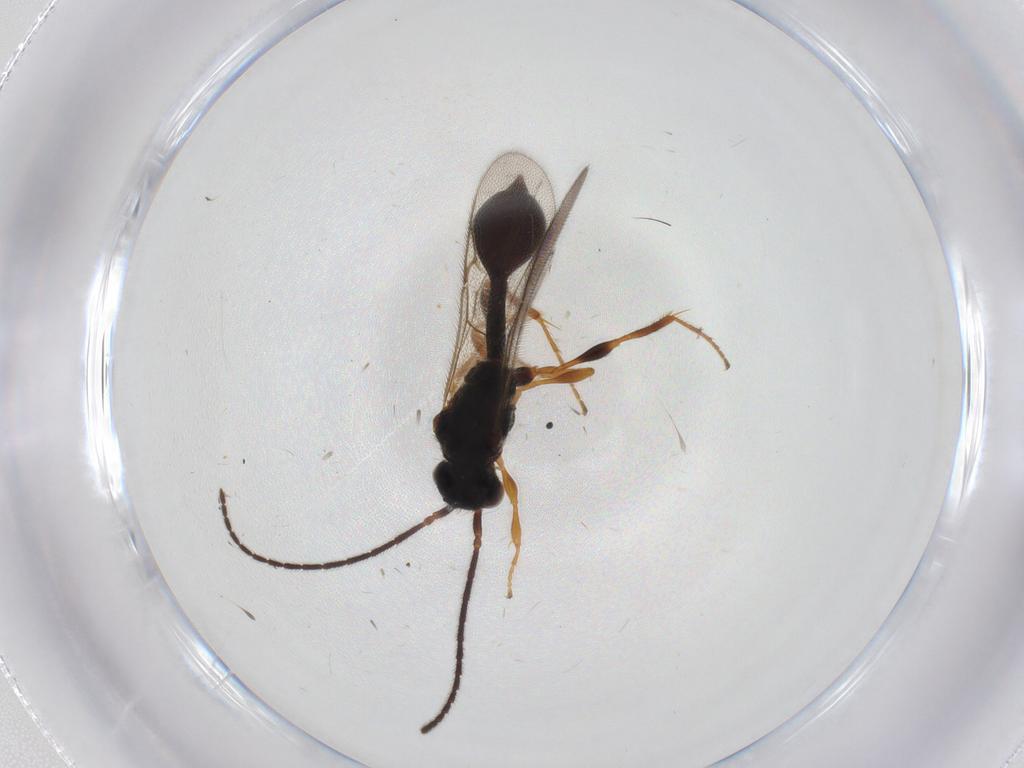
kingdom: Animalia
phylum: Arthropoda
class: Insecta
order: Hymenoptera
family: Diapriidae
